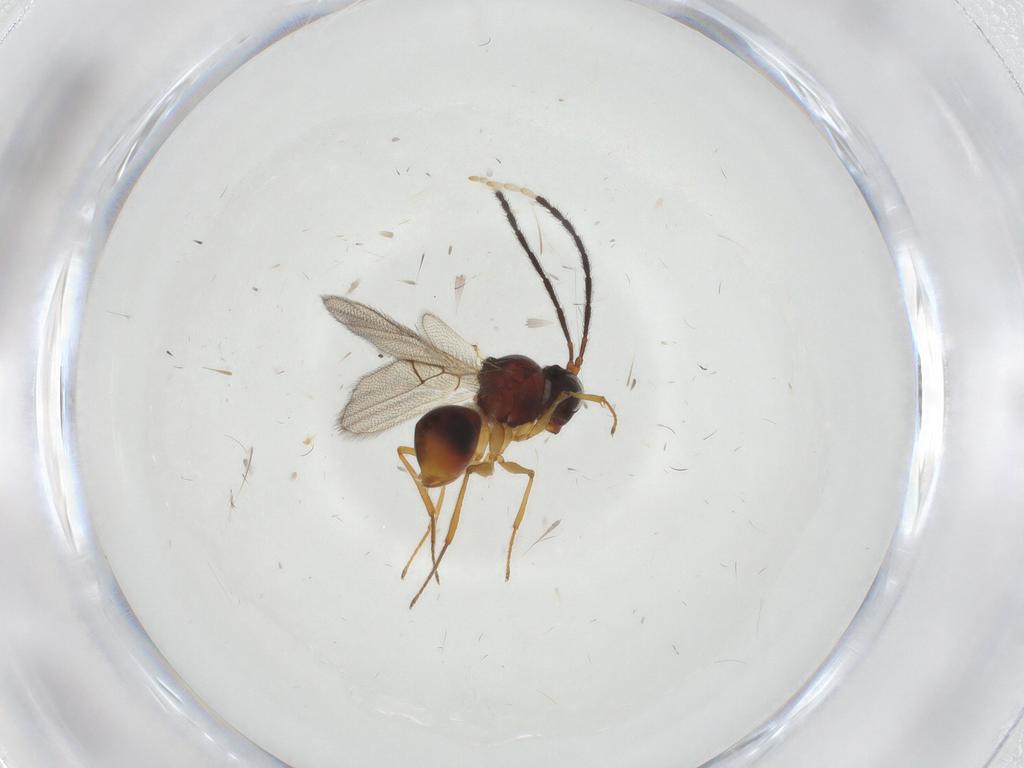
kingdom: Animalia
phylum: Arthropoda
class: Insecta
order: Hymenoptera
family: Figitidae
